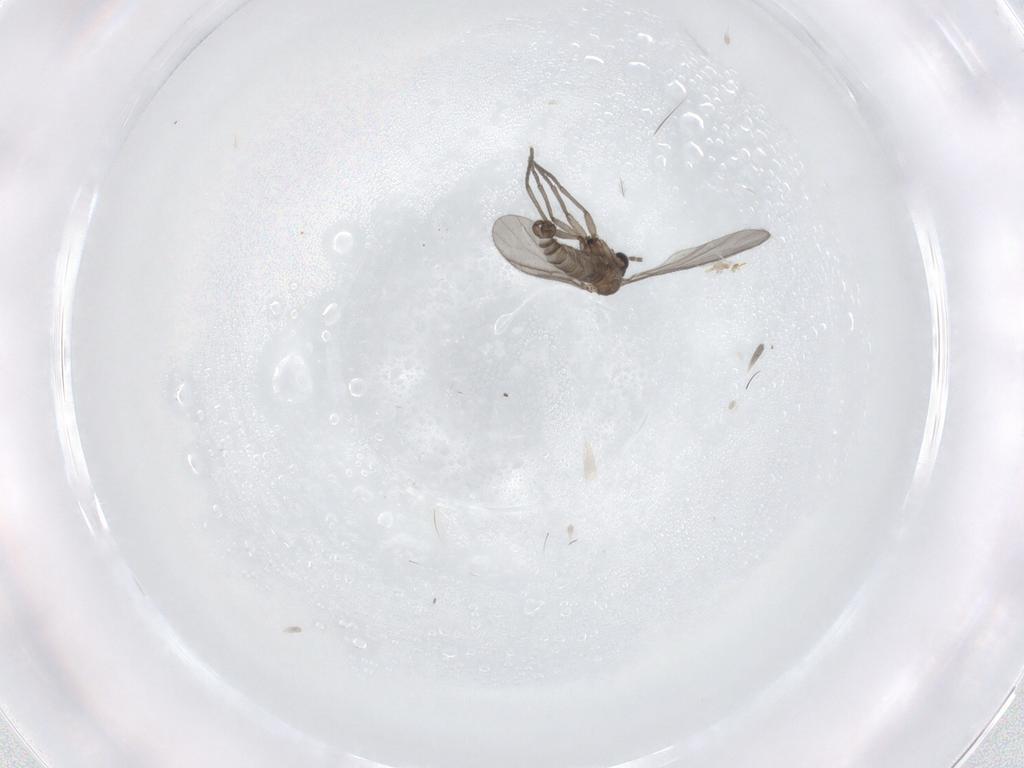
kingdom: Animalia
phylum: Arthropoda
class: Insecta
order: Diptera
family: Sciaridae
